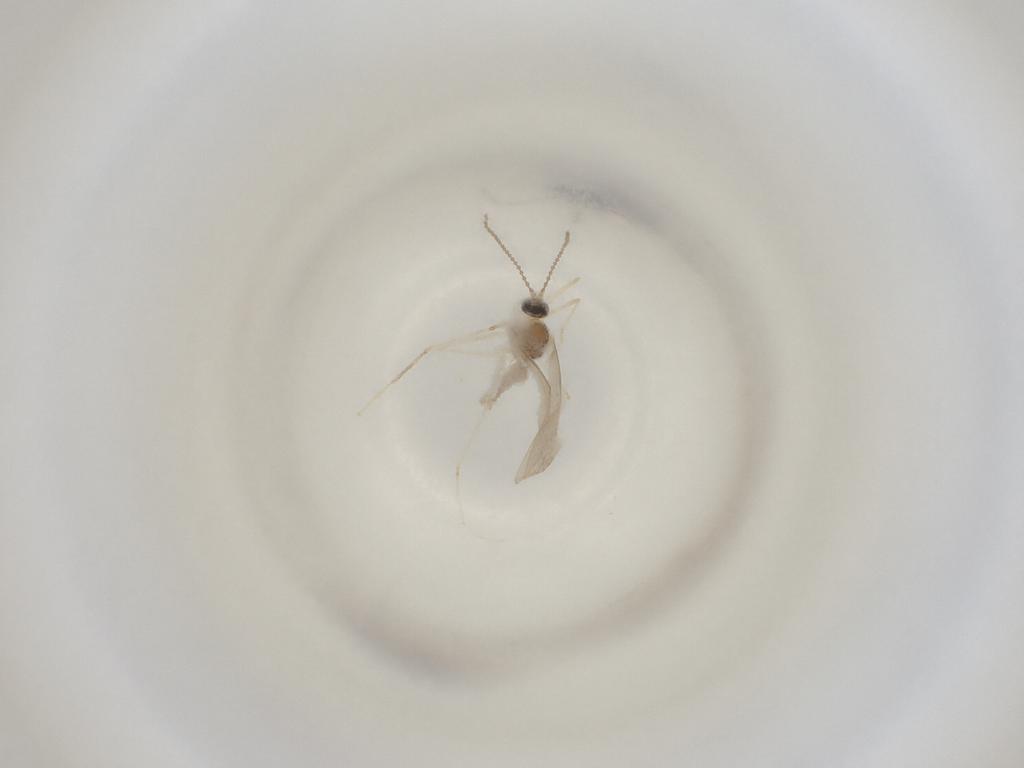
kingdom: Animalia
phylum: Arthropoda
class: Insecta
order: Diptera
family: Cecidomyiidae
